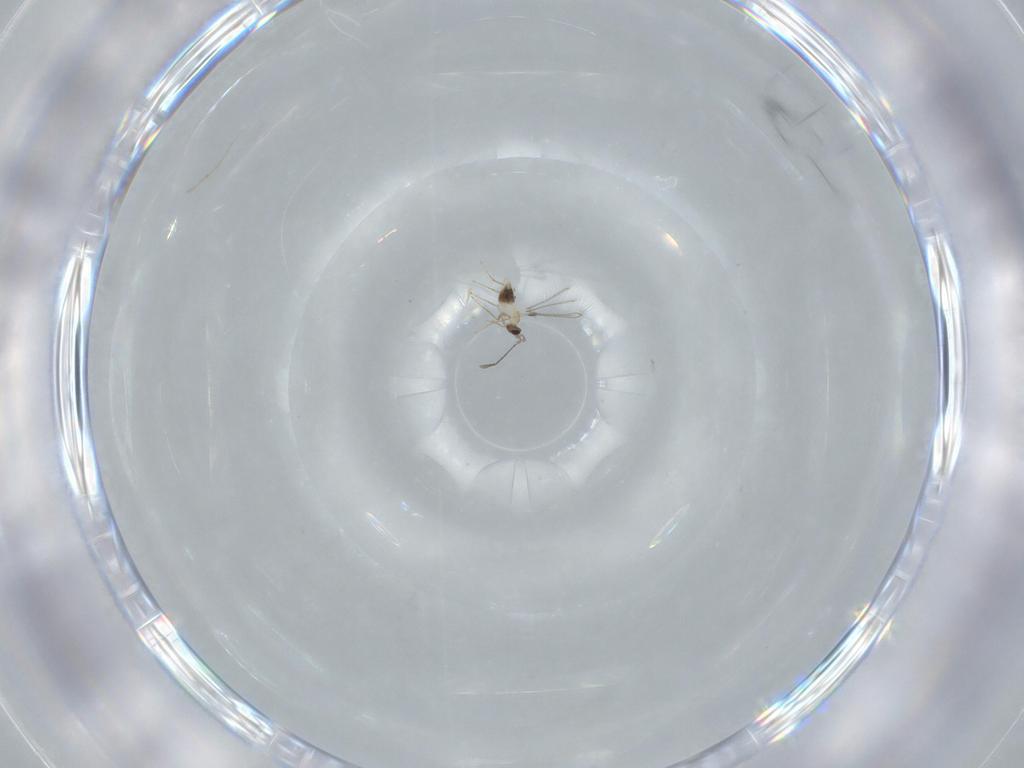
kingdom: Animalia
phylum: Arthropoda
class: Insecta
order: Hymenoptera
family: Mymaridae
